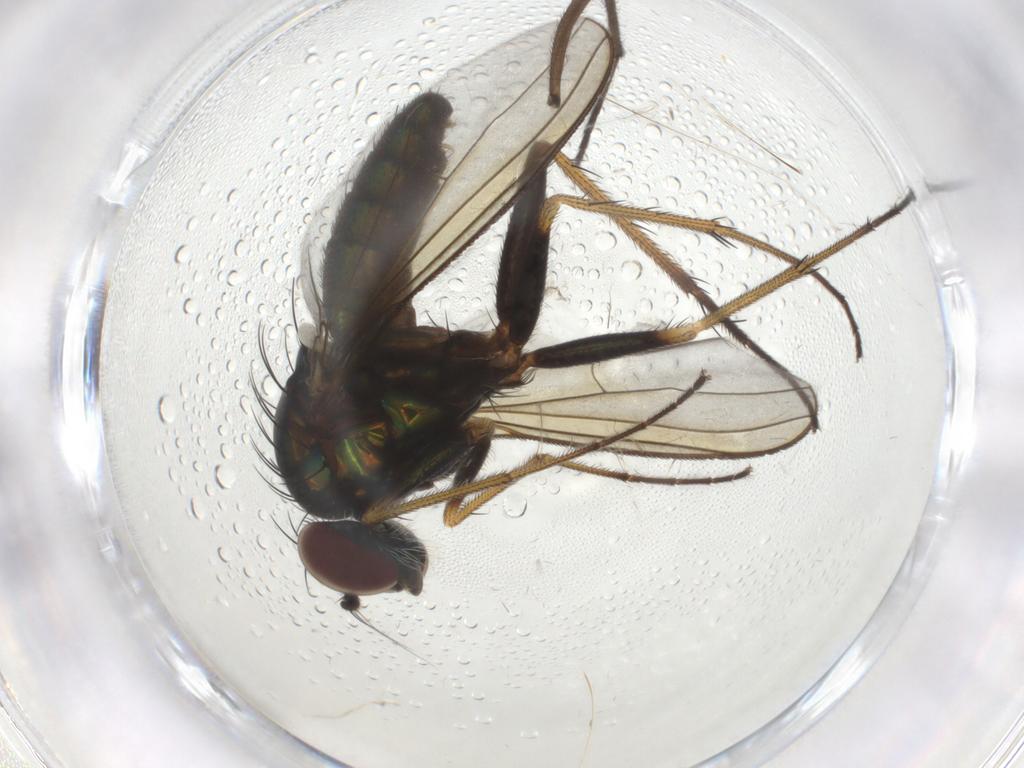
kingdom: Animalia
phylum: Arthropoda
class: Insecta
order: Diptera
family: Dolichopodidae
